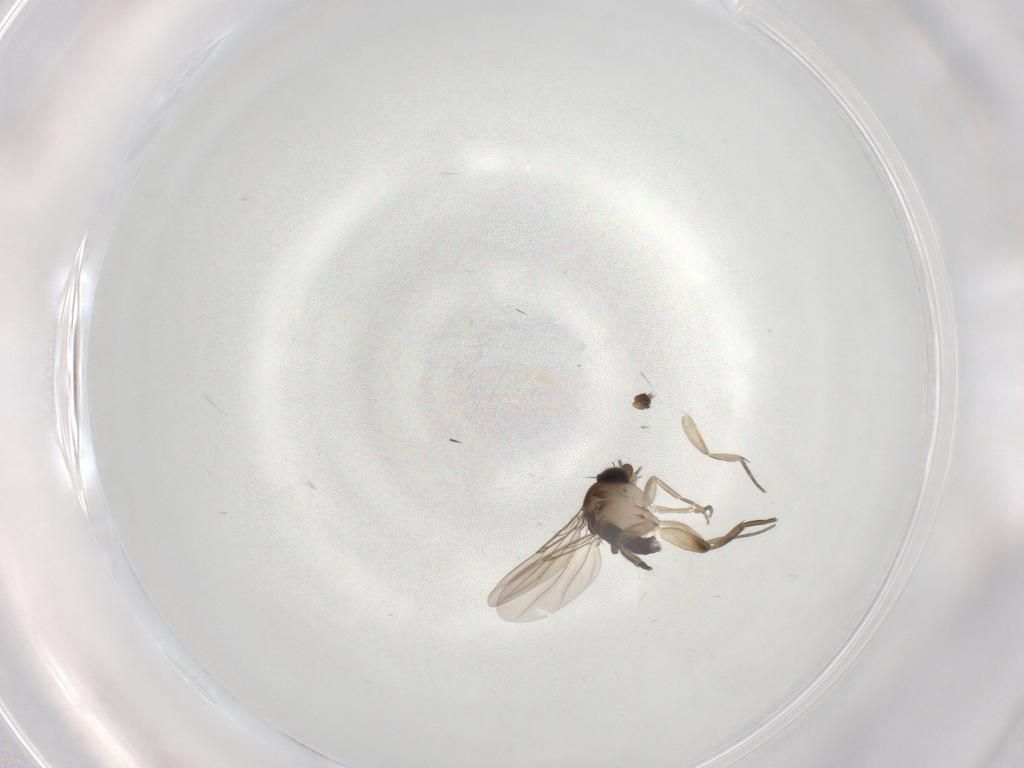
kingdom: Animalia
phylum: Arthropoda
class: Insecta
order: Diptera
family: Phoridae
